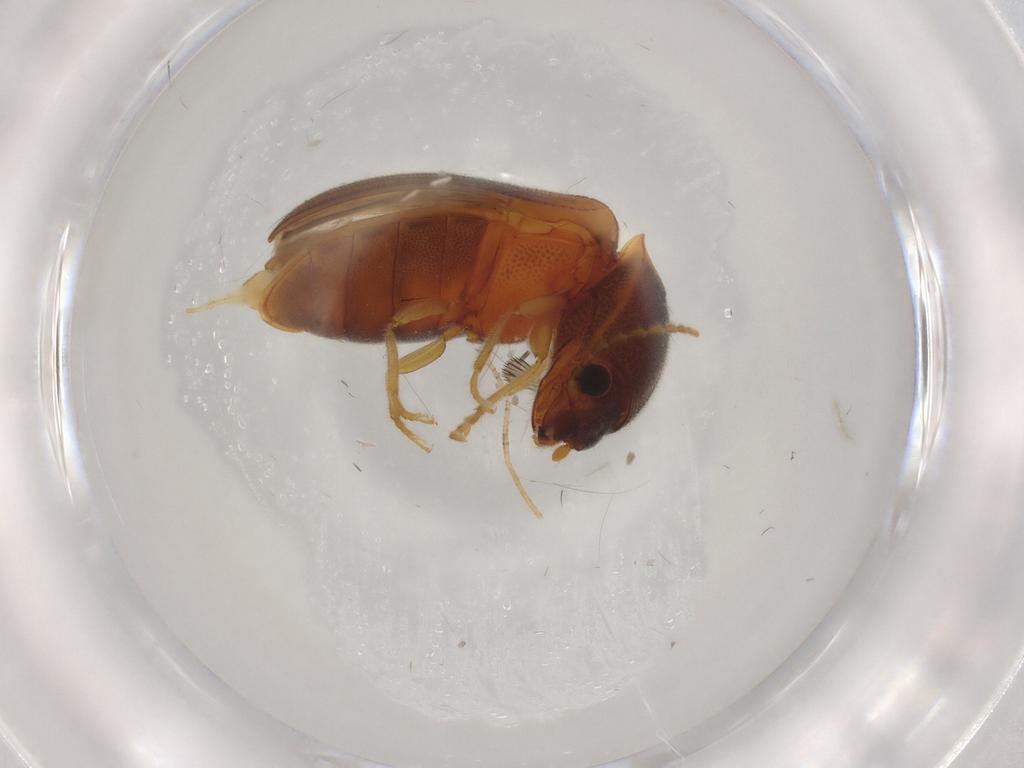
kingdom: Animalia
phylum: Arthropoda
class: Insecta
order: Coleoptera
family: Elateridae
